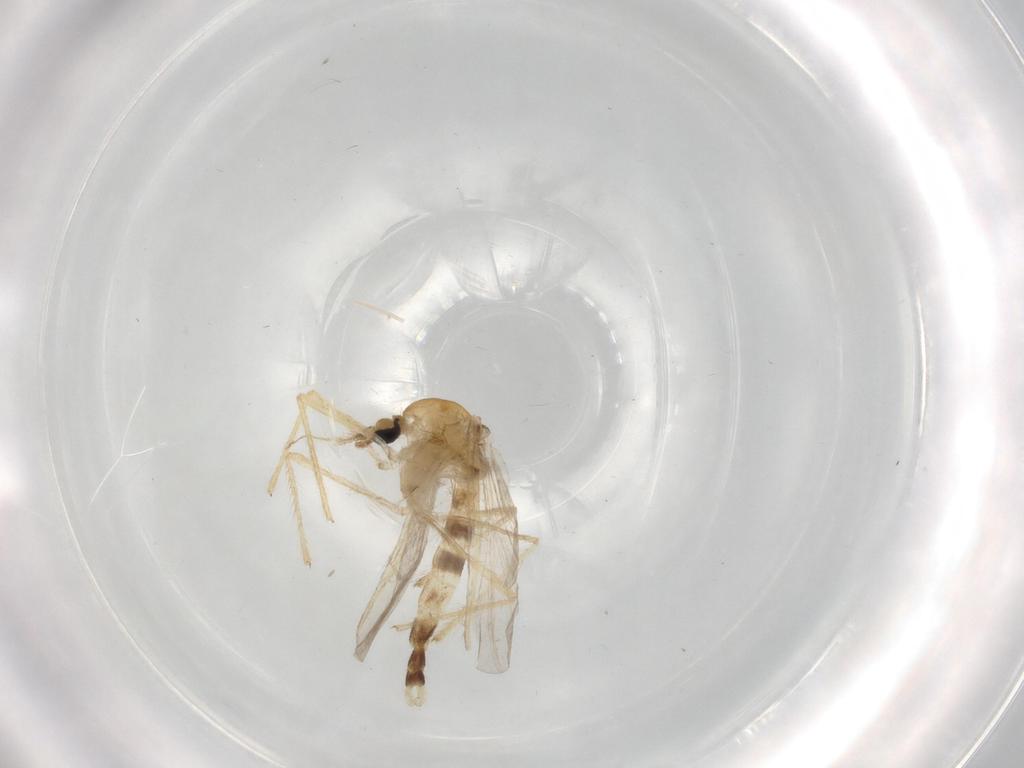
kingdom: Animalia
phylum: Arthropoda
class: Insecta
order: Diptera
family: Chironomidae
